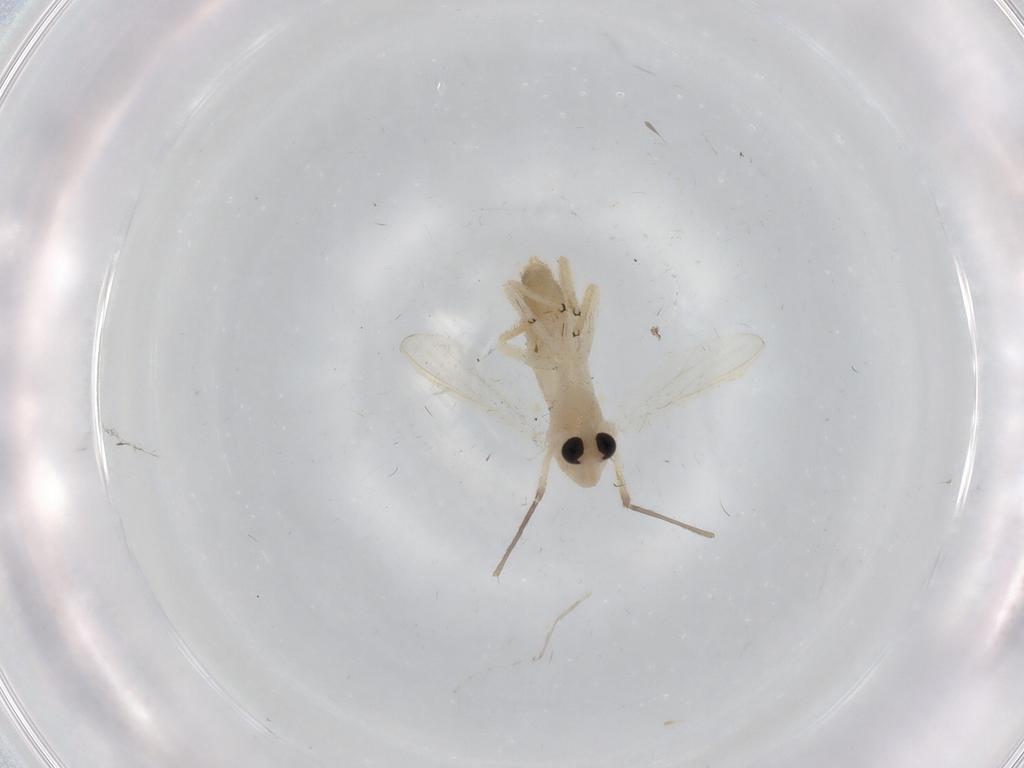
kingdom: Animalia
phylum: Arthropoda
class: Insecta
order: Diptera
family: Chironomidae
